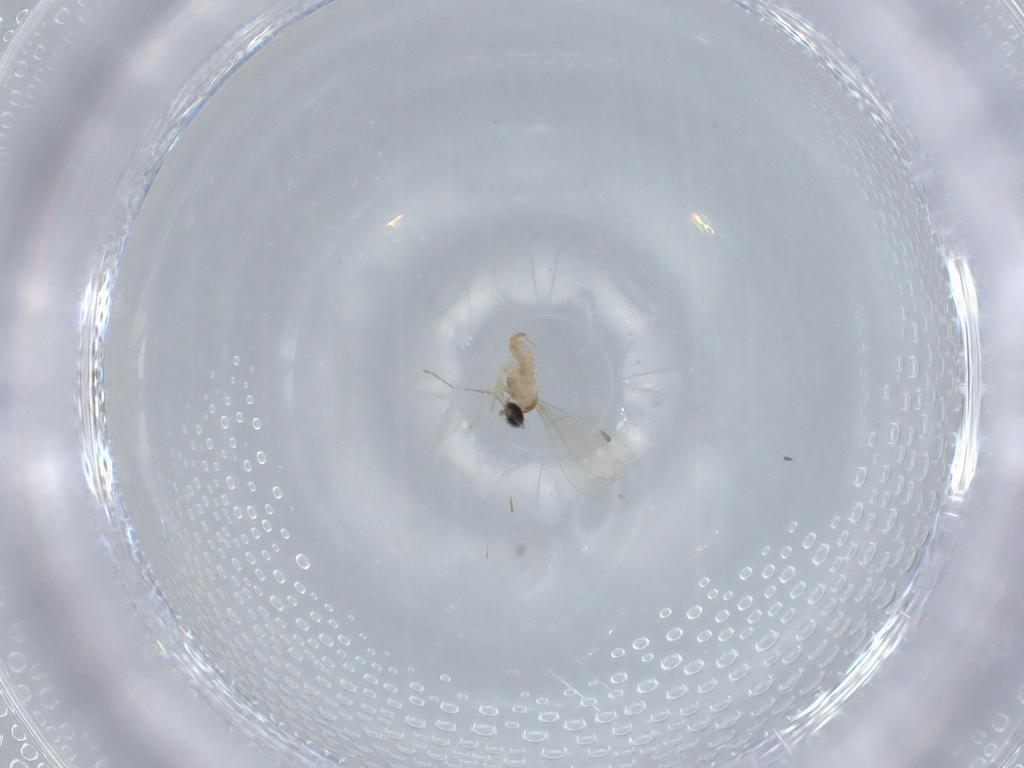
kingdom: Animalia
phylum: Arthropoda
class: Insecta
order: Diptera
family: Cecidomyiidae
